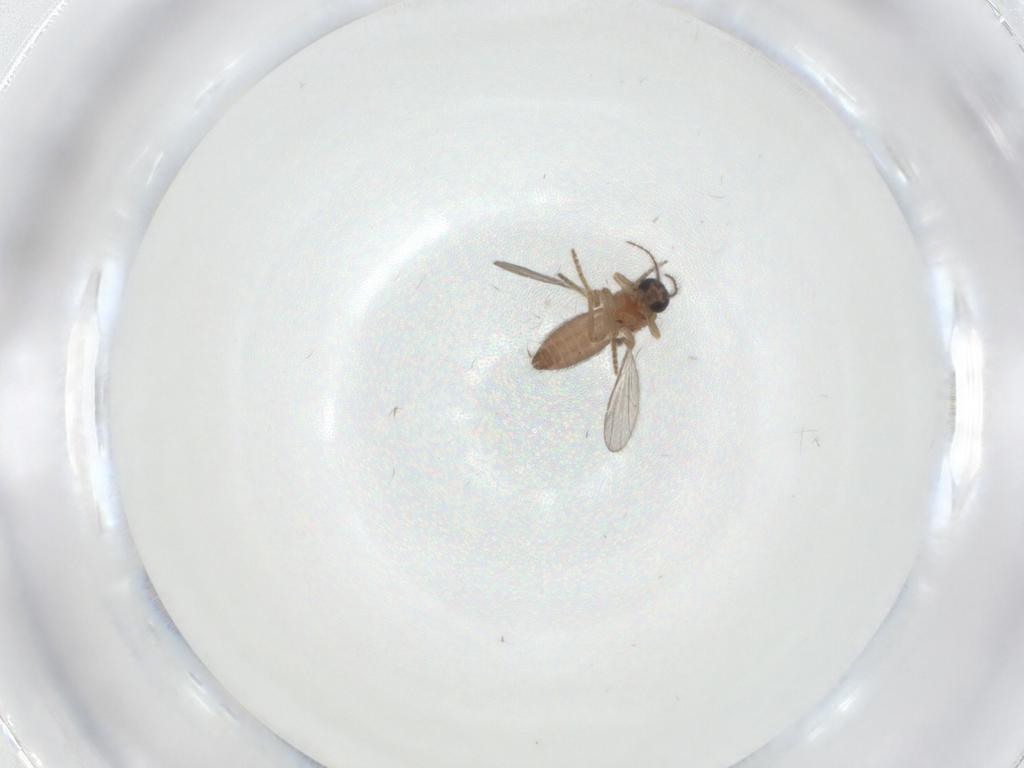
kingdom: Animalia
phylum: Arthropoda
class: Insecta
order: Diptera
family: Ceratopogonidae
